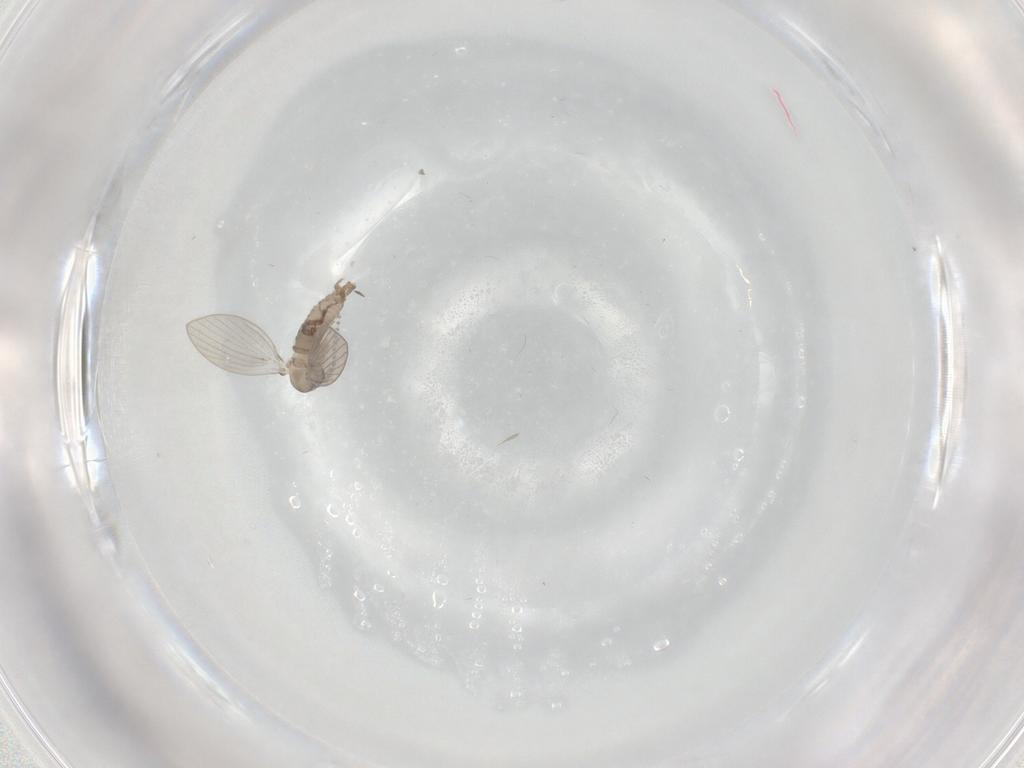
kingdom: Animalia
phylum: Arthropoda
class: Insecta
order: Diptera
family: Psychodidae
